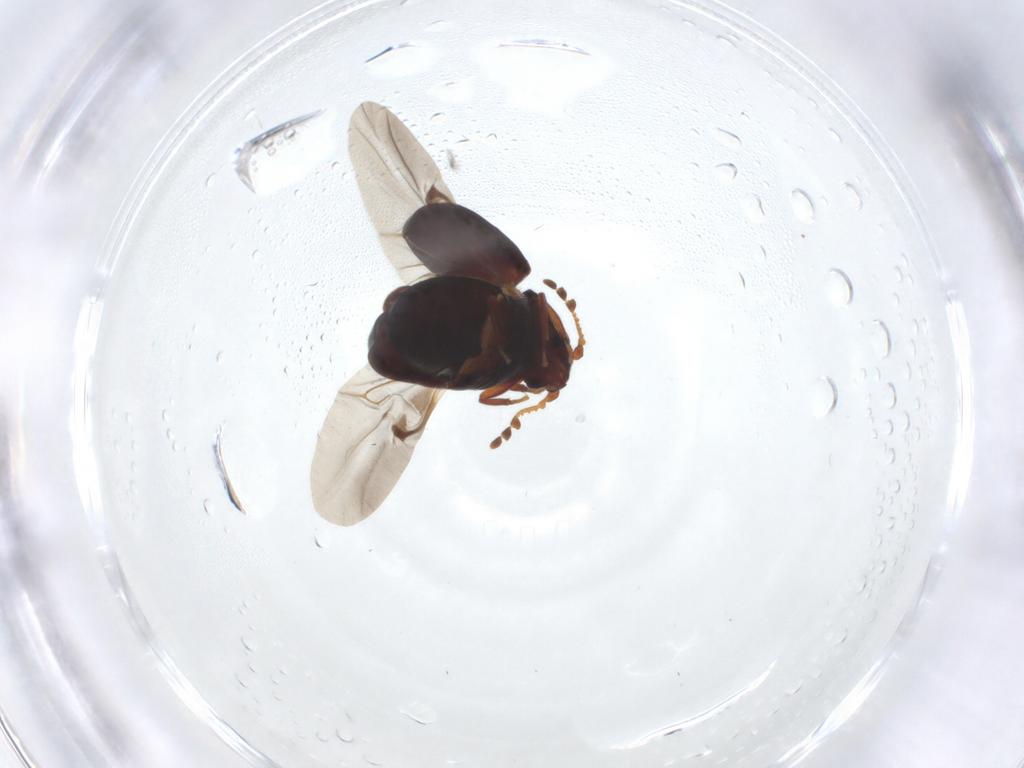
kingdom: Animalia
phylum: Arthropoda
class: Insecta
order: Coleoptera
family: Ptinidae
